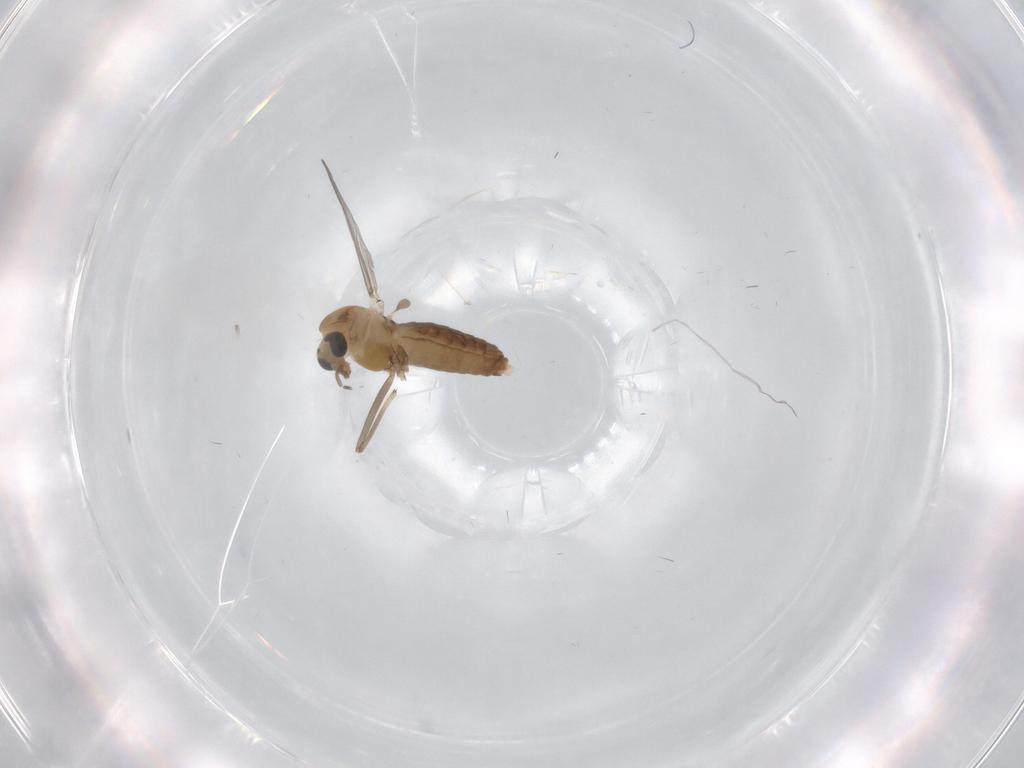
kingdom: Animalia
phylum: Arthropoda
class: Insecta
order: Diptera
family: Chironomidae
